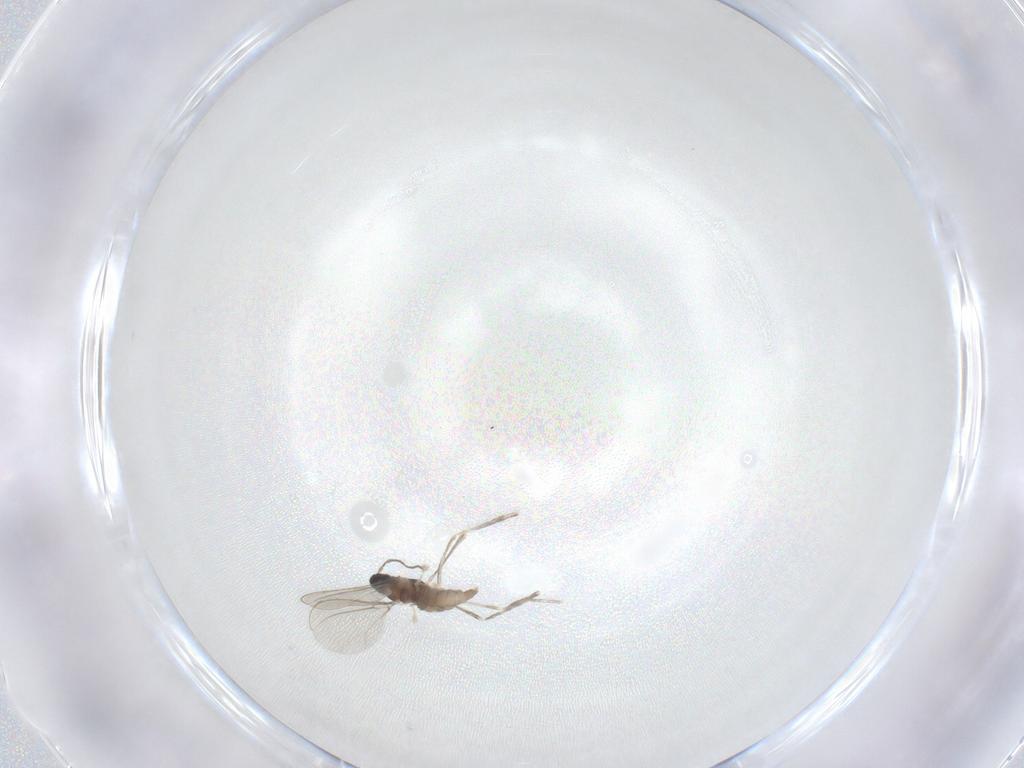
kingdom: Animalia
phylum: Arthropoda
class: Insecta
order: Diptera
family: Cecidomyiidae
